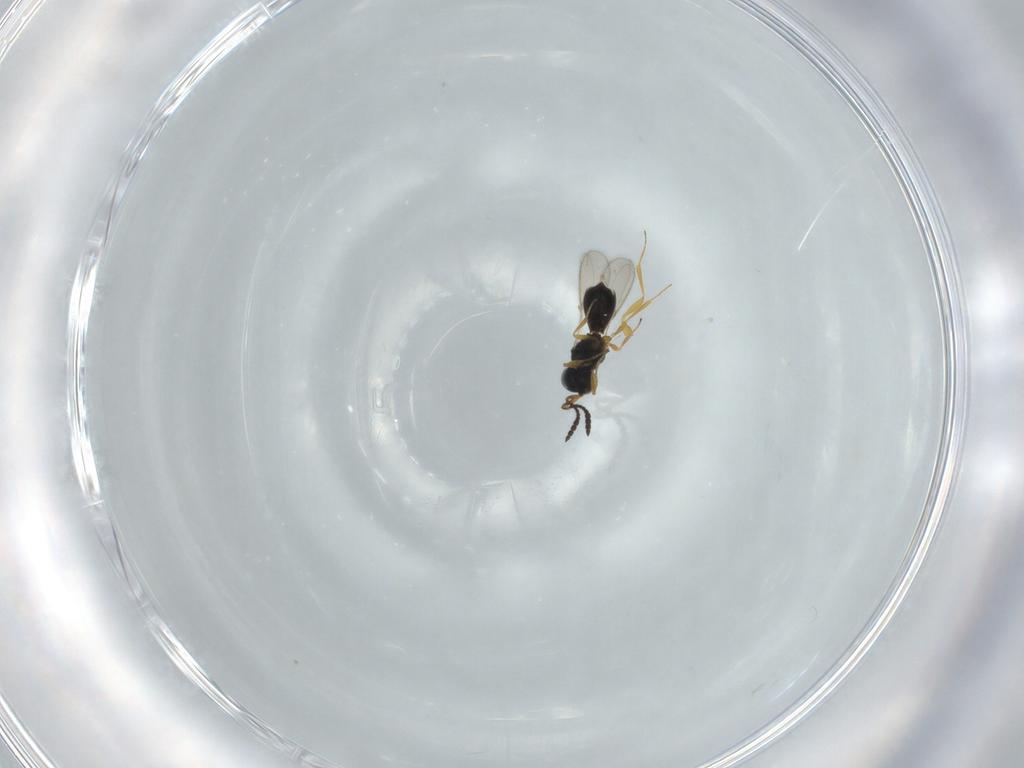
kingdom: Animalia
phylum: Arthropoda
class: Insecta
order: Hymenoptera
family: Scelionidae
